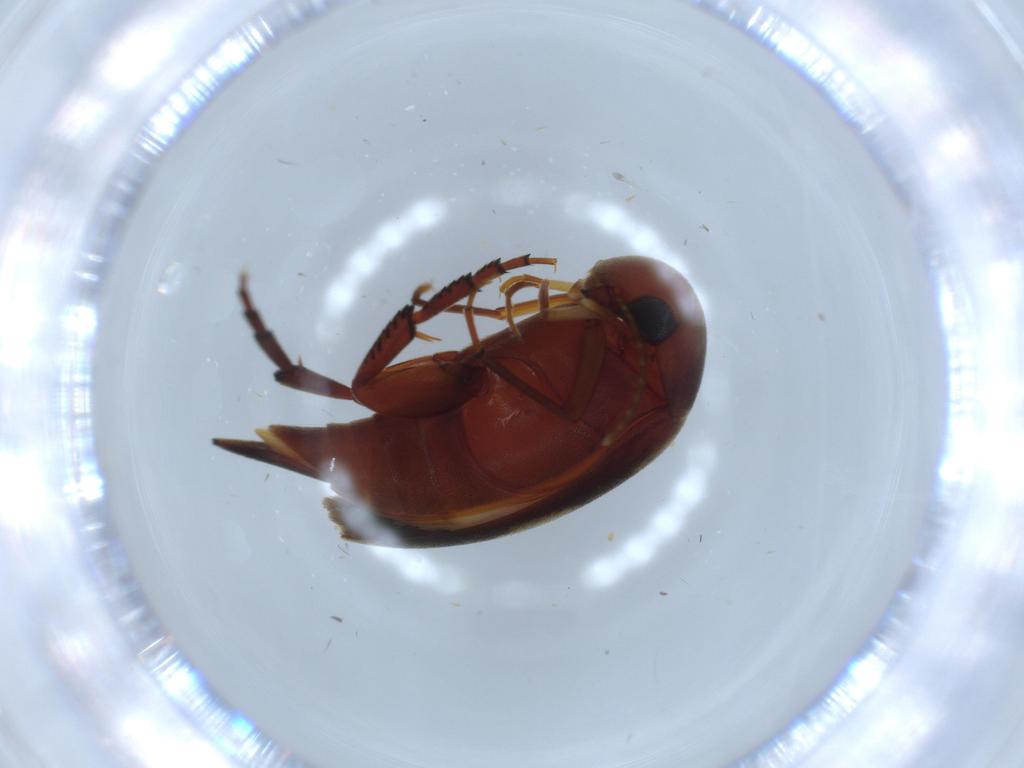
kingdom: Animalia
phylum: Arthropoda
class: Insecta
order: Coleoptera
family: Mordellidae
